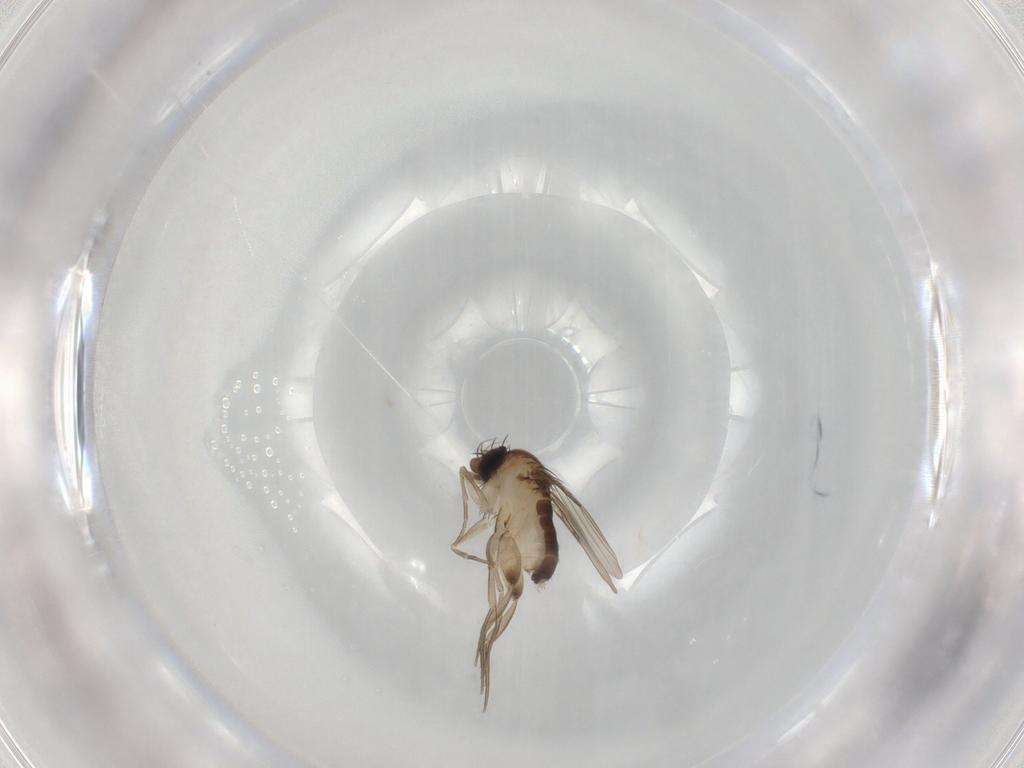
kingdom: Animalia
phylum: Arthropoda
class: Insecta
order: Diptera
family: Phoridae
